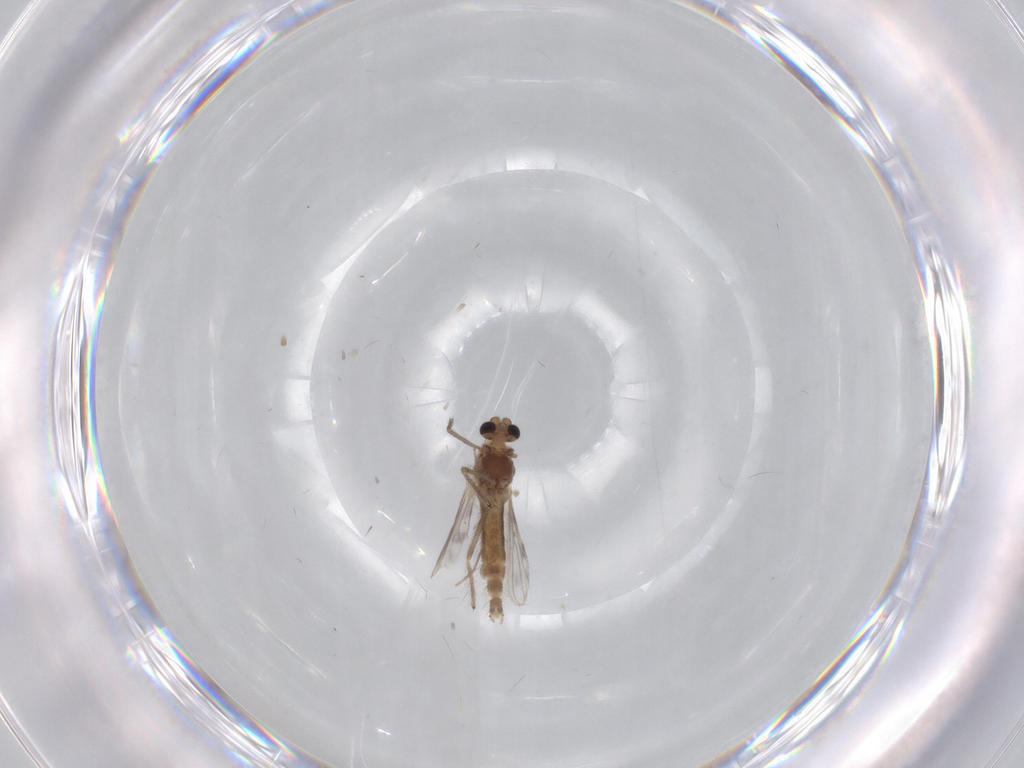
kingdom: Animalia
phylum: Arthropoda
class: Insecta
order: Diptera
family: Chironomidae
